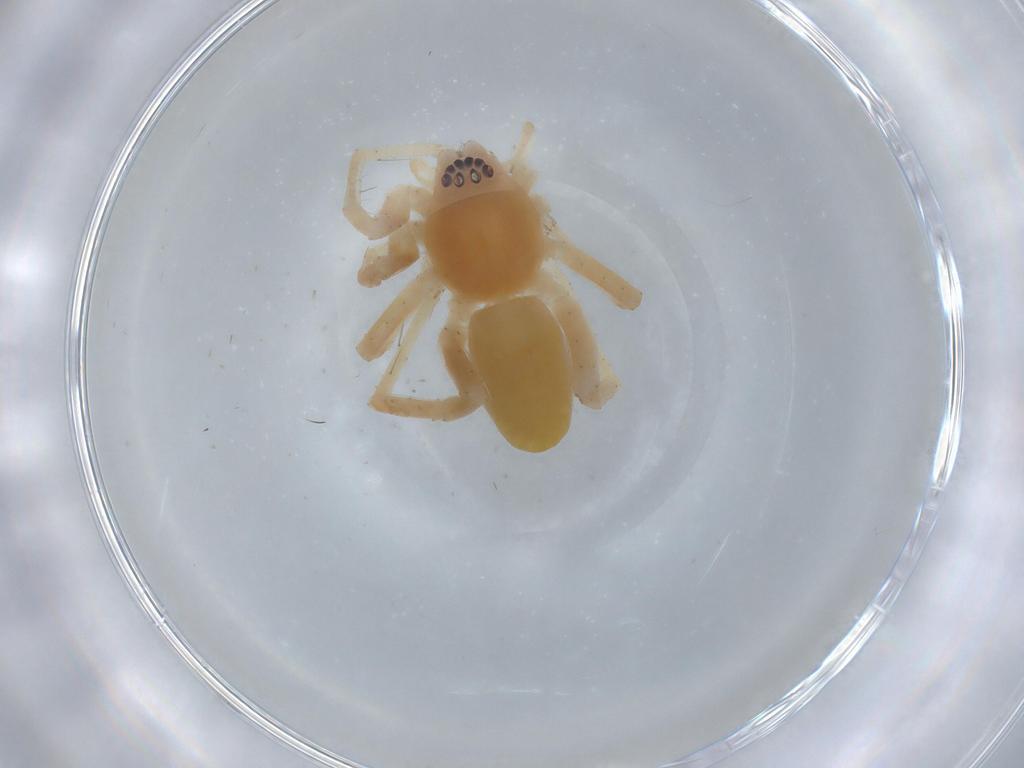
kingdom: Animalia
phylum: Arthropoda
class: Arachnida
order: Araneae
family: Anyphaenidae
